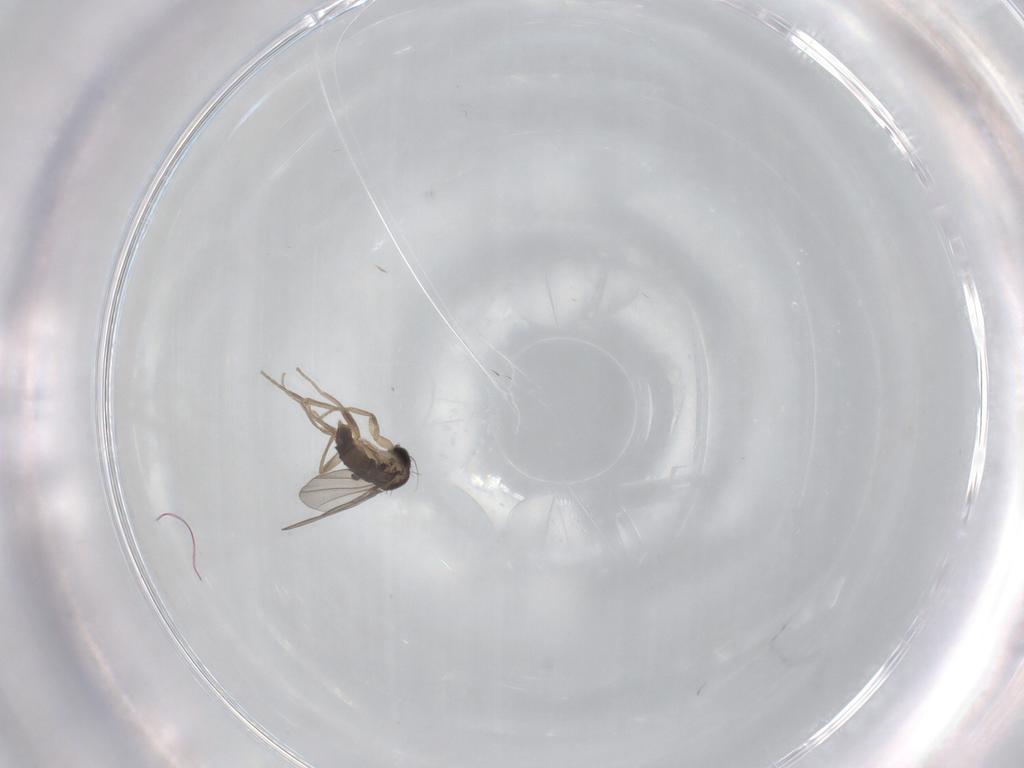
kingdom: Animalia
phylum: Arthropoda
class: Insecta
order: Diptera
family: Phoridae
